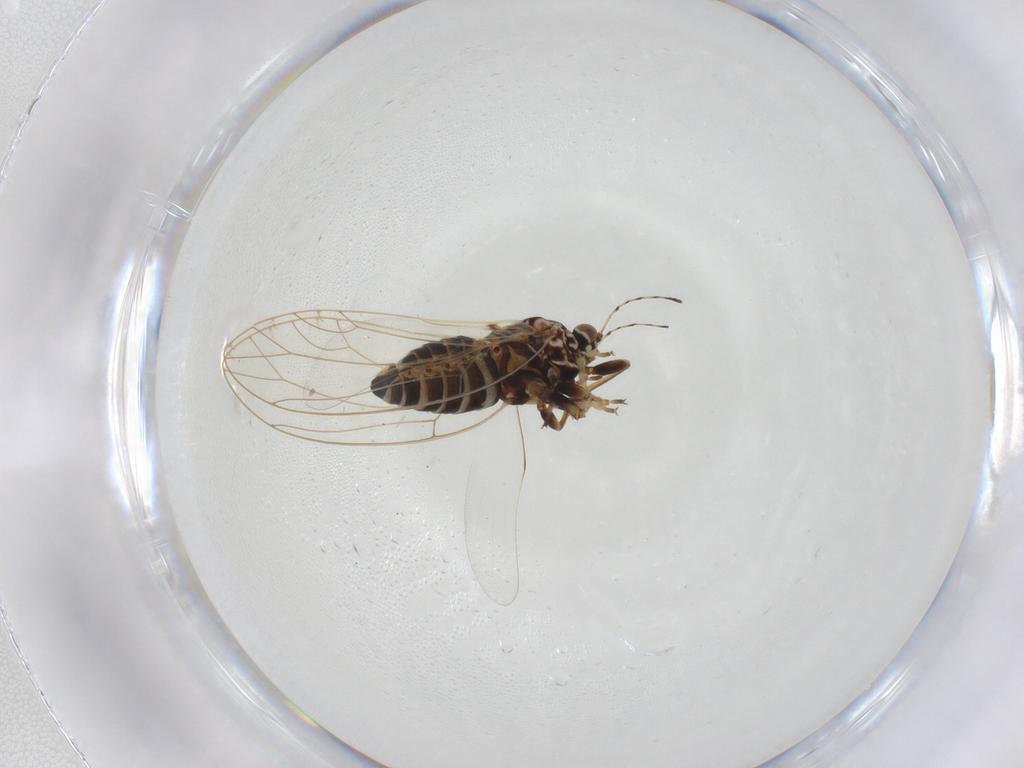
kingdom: Animalia
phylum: Arthropoda
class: Insecta
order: Hemiptera
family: Triozidae
